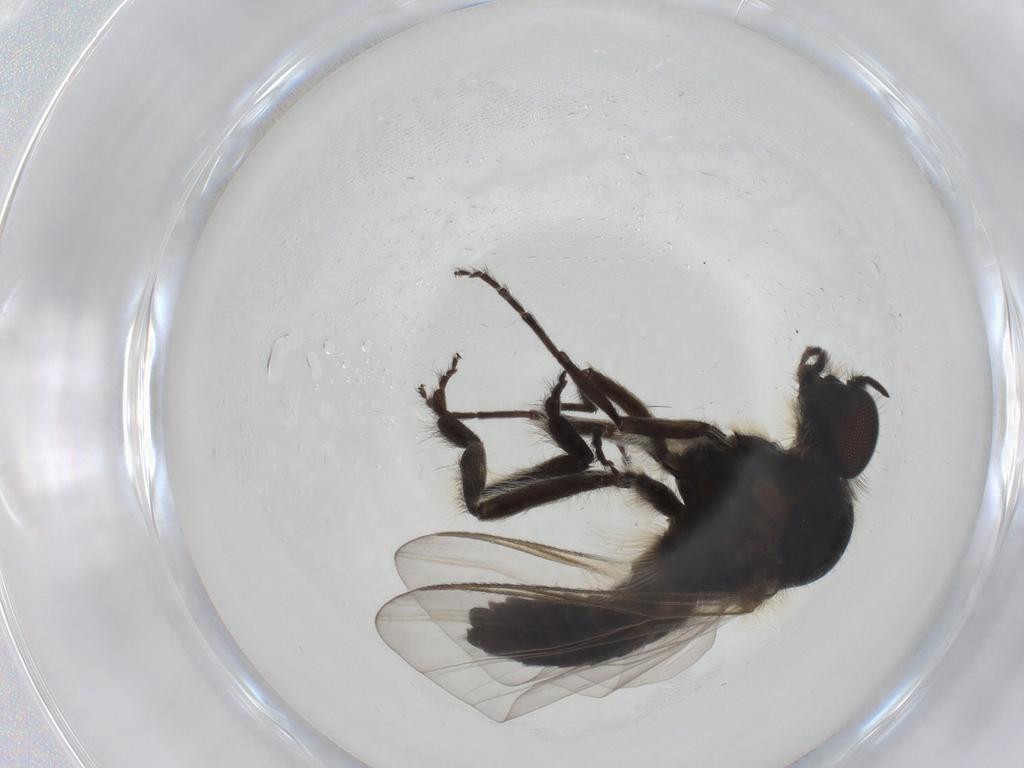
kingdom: Animalia
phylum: Arthropoda
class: Insecta
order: Diptera
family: Simuliidae
